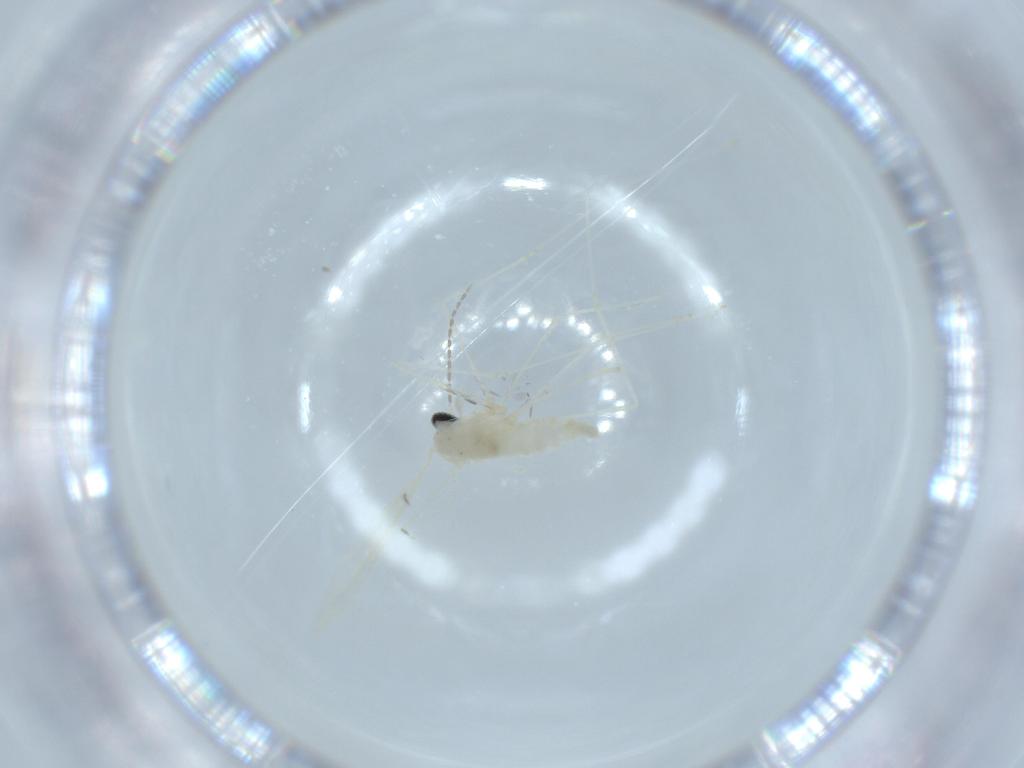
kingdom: Animalia
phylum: Arthropoda
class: Insecta
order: Diptera
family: Cecidomyiidae
